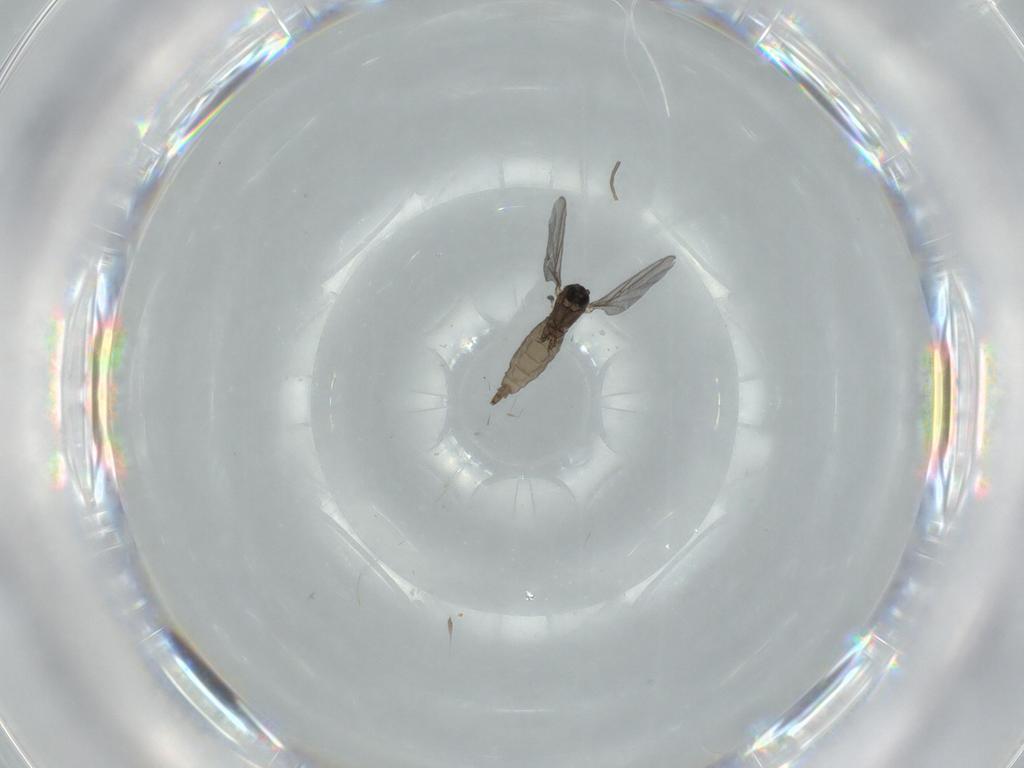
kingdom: Animalia
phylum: Arthropoda
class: Insecta
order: Diptera
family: Sciaridae
